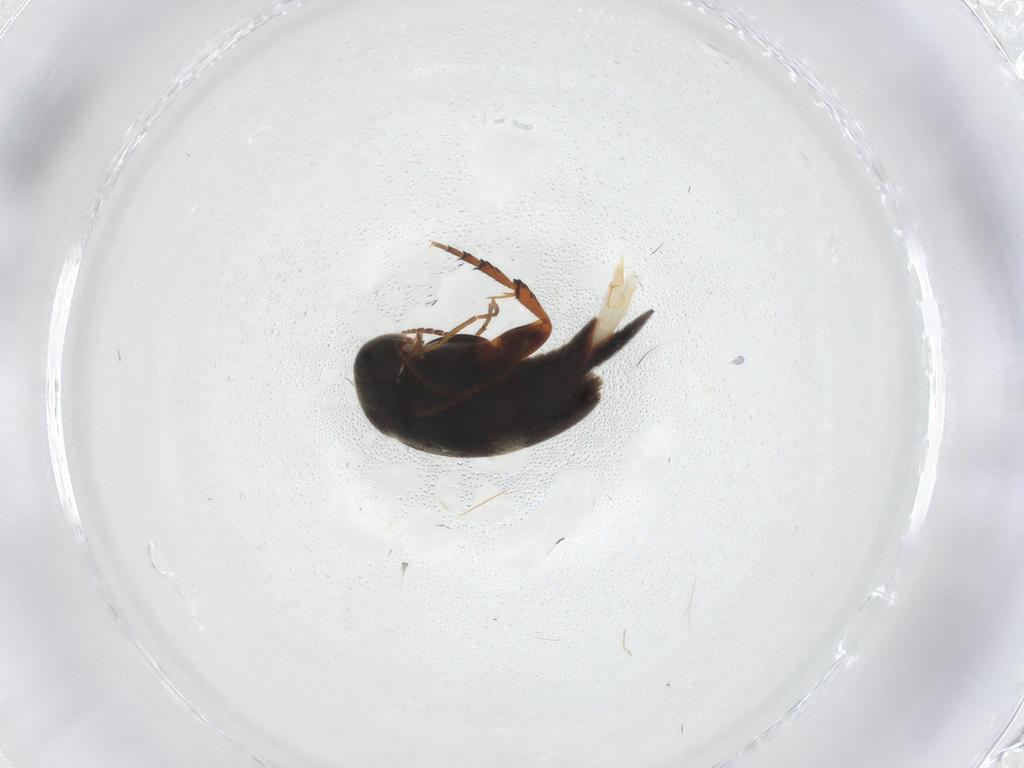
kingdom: Animalia
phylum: Arthropoda
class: Insecta
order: Coleoptera
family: Mordellidae
